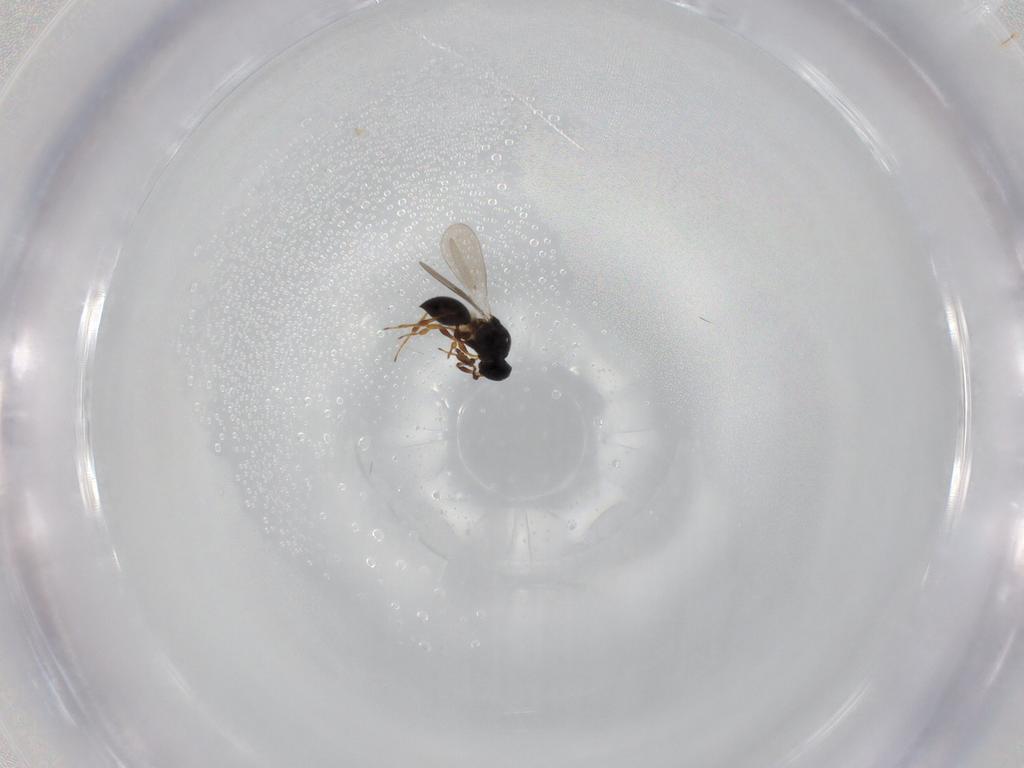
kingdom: Animalia
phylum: Arthropoda
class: Insecta
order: Hymenoptera
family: Platygastridae
